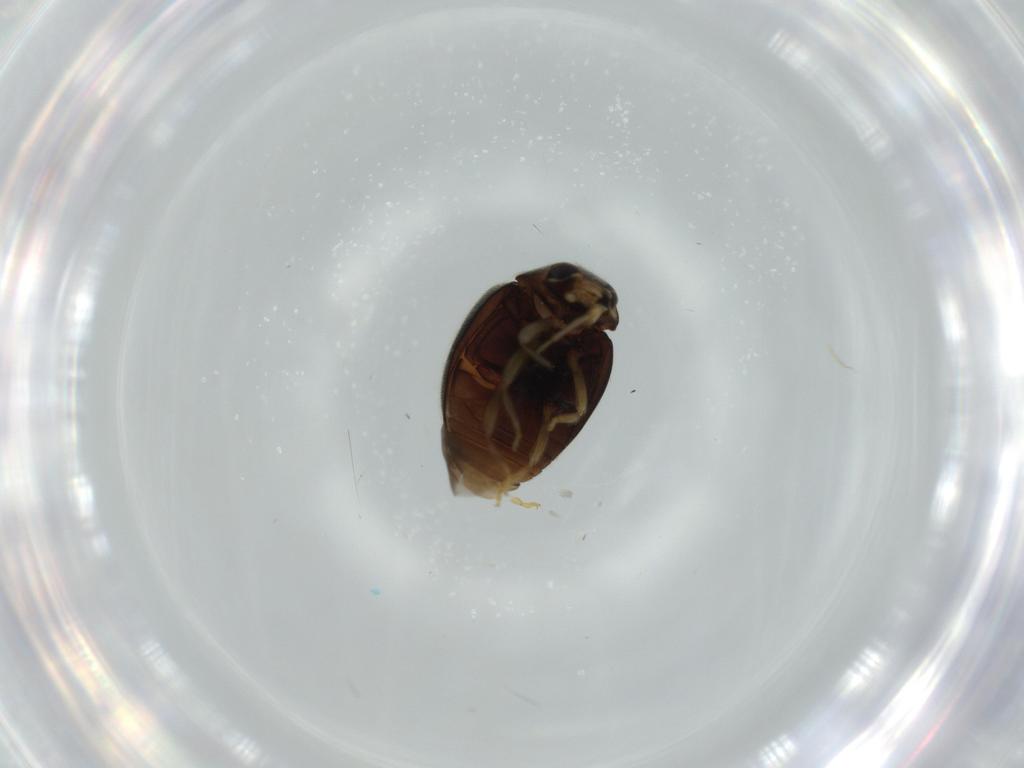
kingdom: Animalia
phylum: Arthropoda
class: Insecta
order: Coleoptera
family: Coccinellidae
